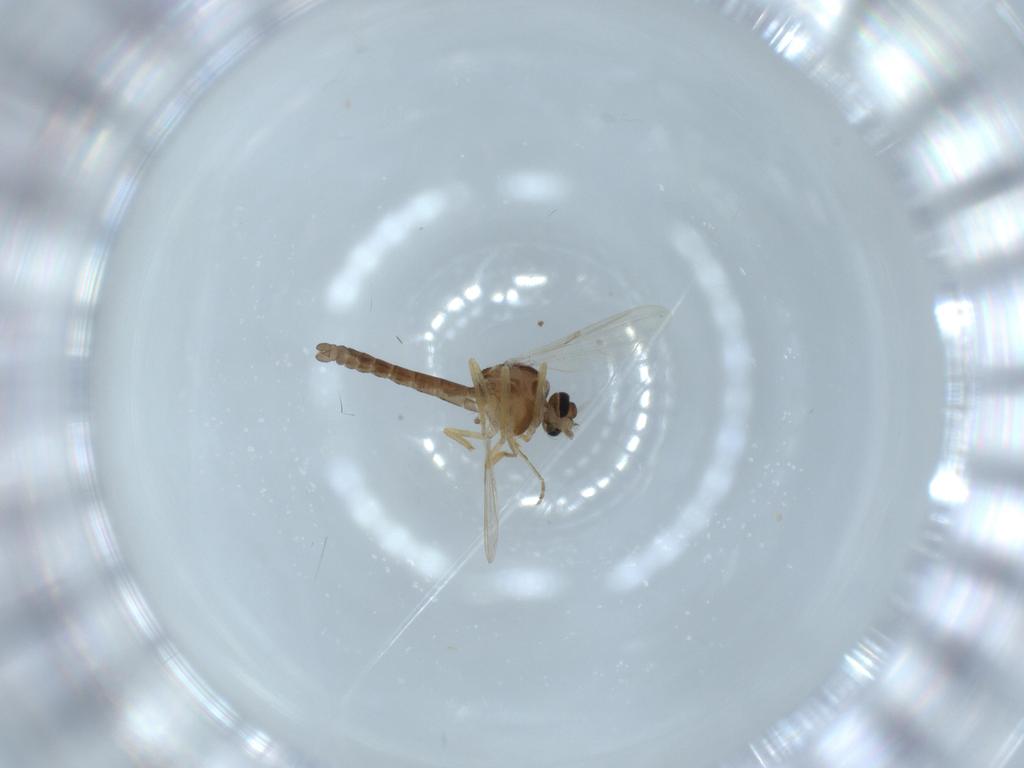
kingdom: Animalia
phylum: Arthropoda
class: Insecta
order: Diptera
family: Ceratopogonidae
